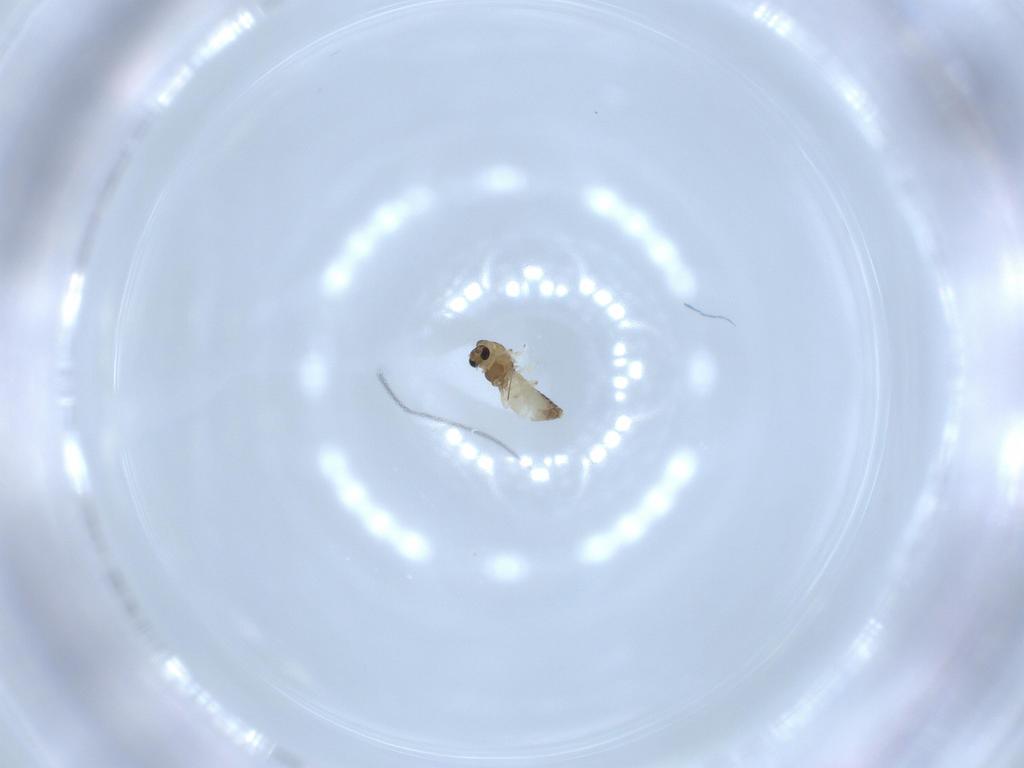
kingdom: Animalia
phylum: Arthropoda
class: Insecta
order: Diptera
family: Chironomidae
